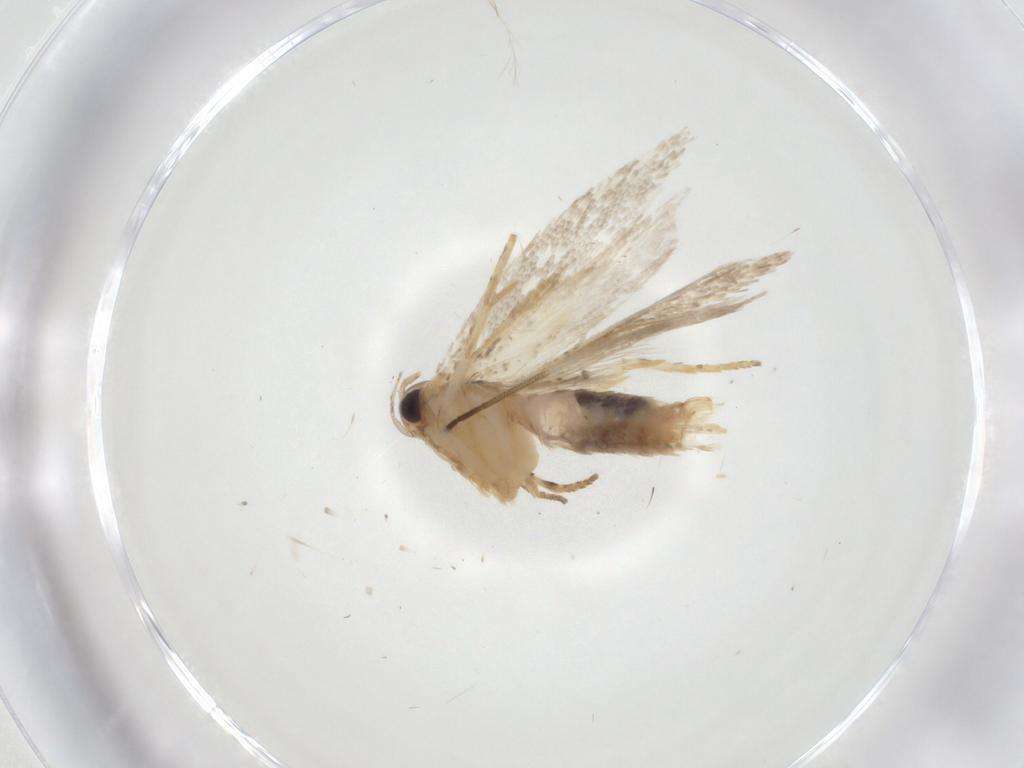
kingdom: Animalia
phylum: Arthropoda
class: Insecta
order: Lepidoptera
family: Gelechiidae
